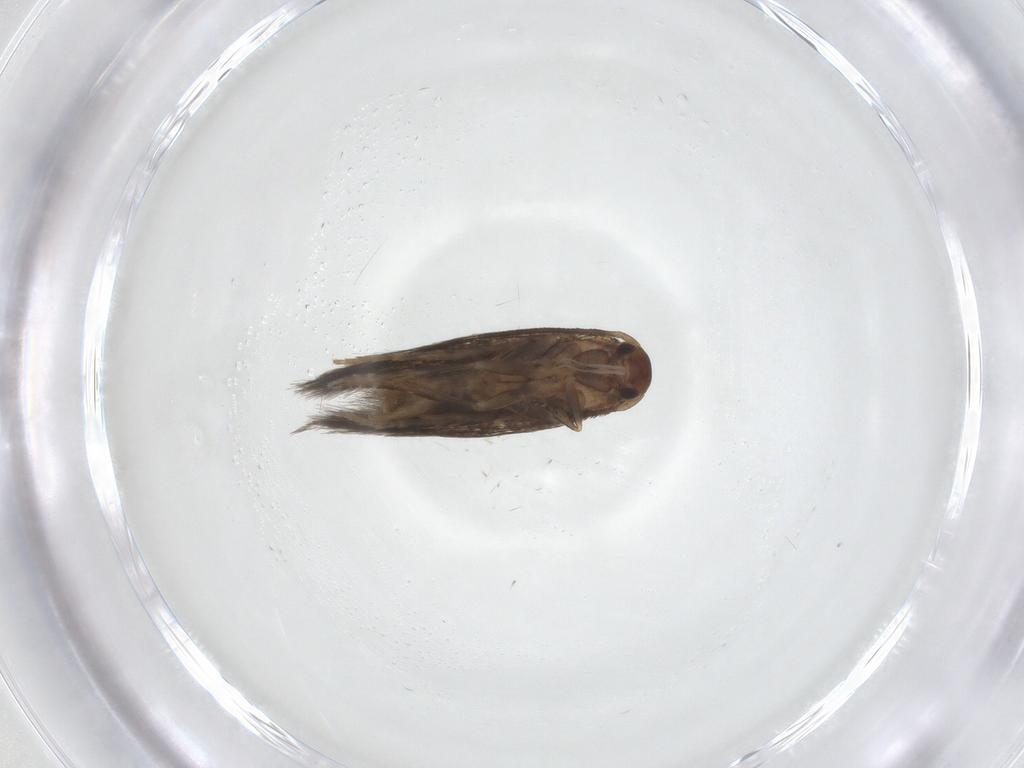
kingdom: Animalia
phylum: Arthropoda
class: Insecta
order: Lepidoptera
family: Elachistidae
